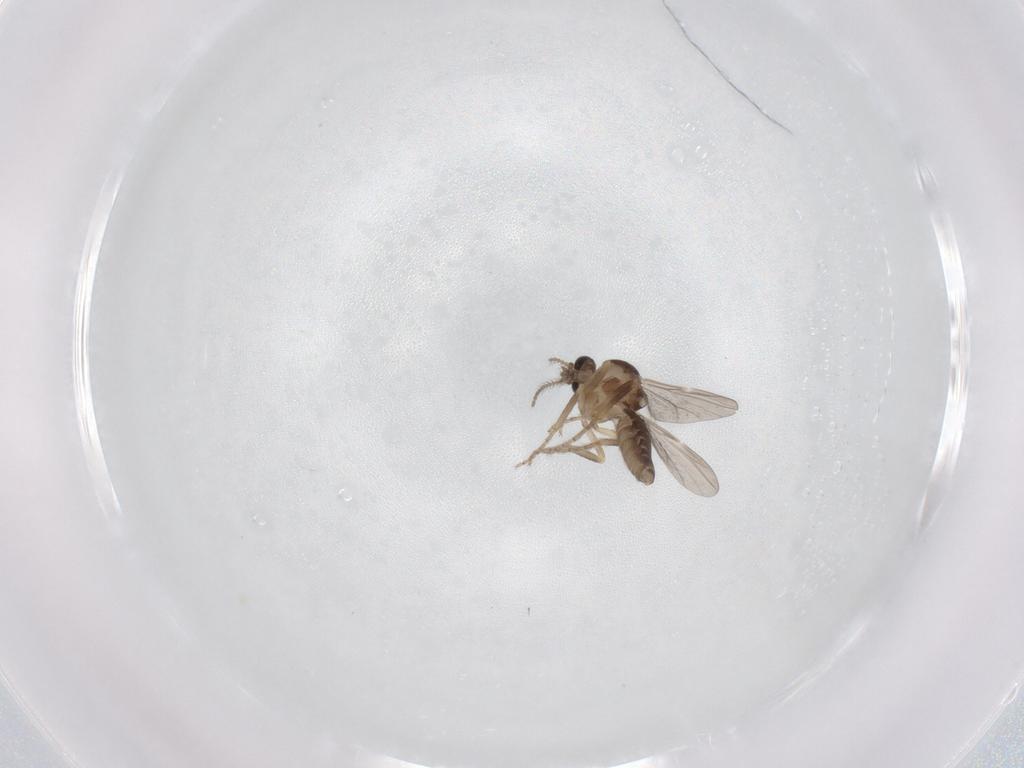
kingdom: Animalia
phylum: Arthropoda
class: Insecta
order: Diptera
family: Ceratopogonidae
